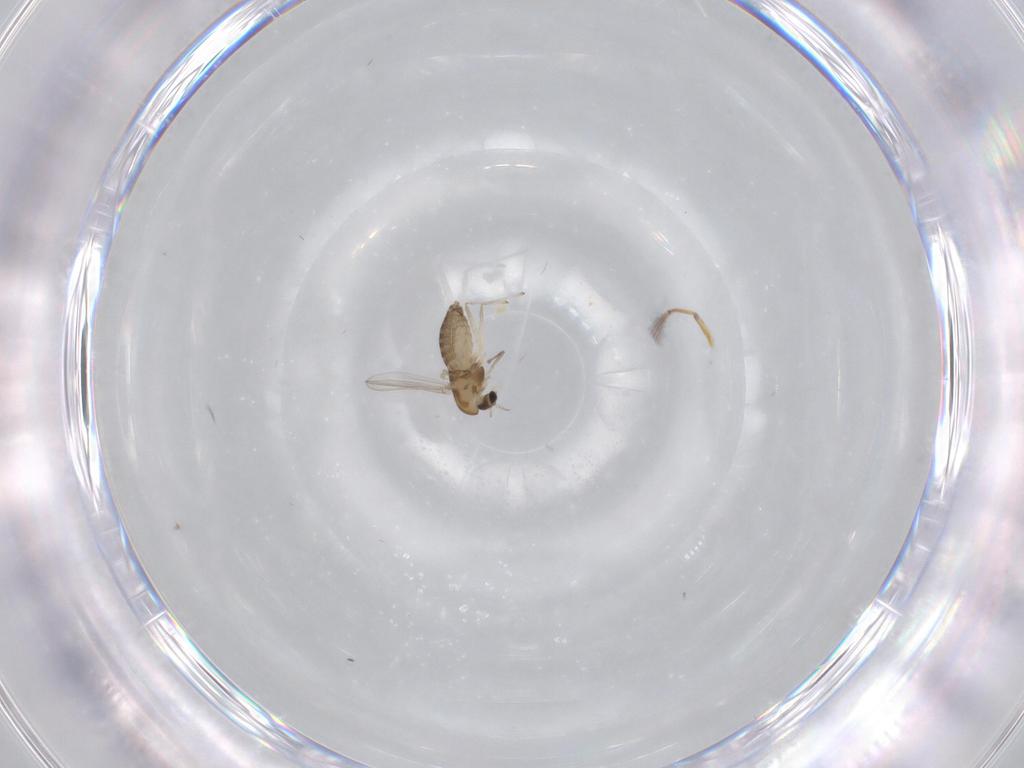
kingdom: Animalia
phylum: Arthropoda
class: Insecta
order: Diptera
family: Chironomidae
